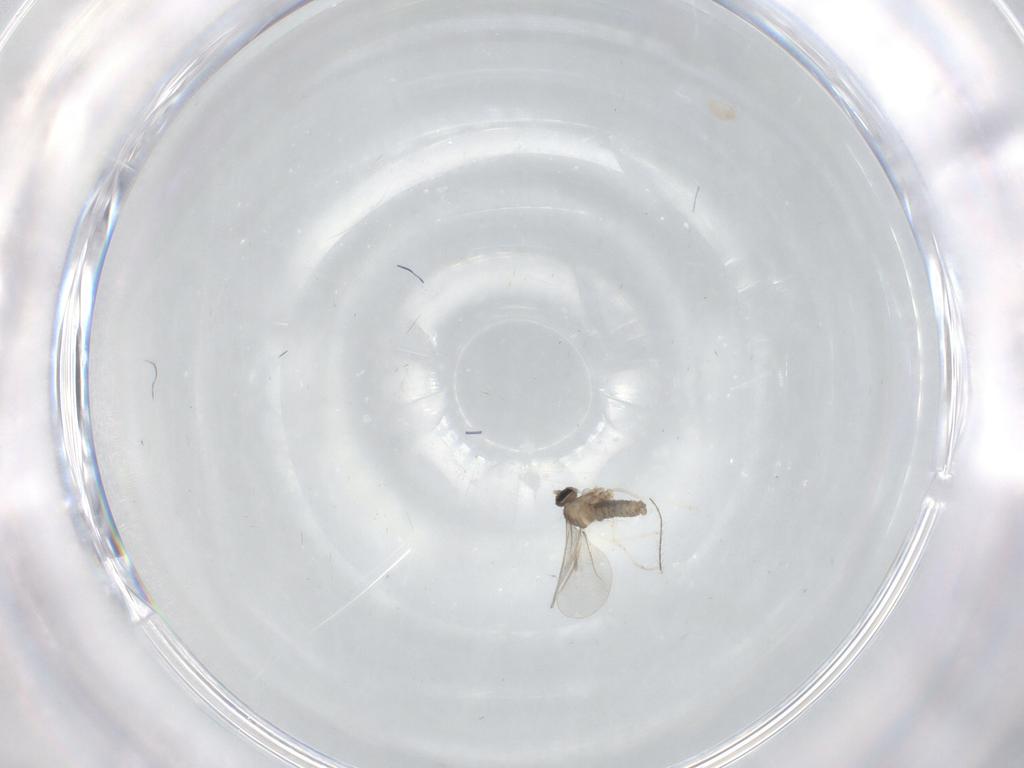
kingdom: Animalia
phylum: Arthropoda
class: Insecta
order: Diptera
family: Cecidomyiidae
